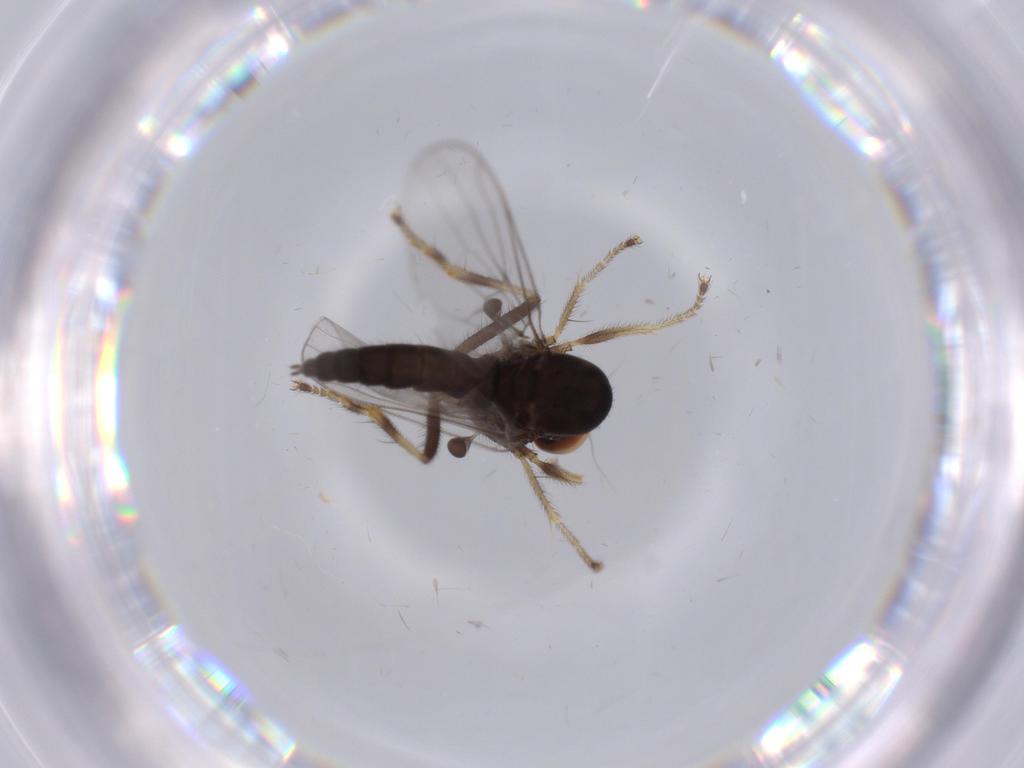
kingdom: Animalia
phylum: Arthropoda
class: Insecta
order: Diptera
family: Hybotidae
